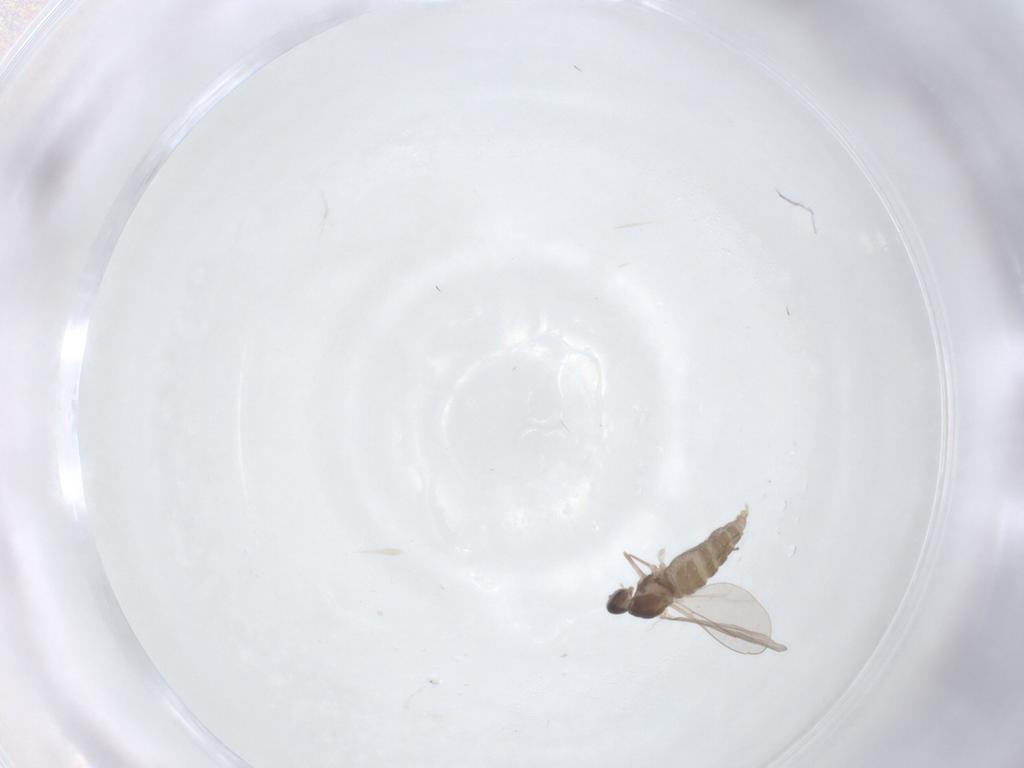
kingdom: Animalia
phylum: Arthropoda
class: Insecta
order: Diptera
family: Cecidomyiidae
